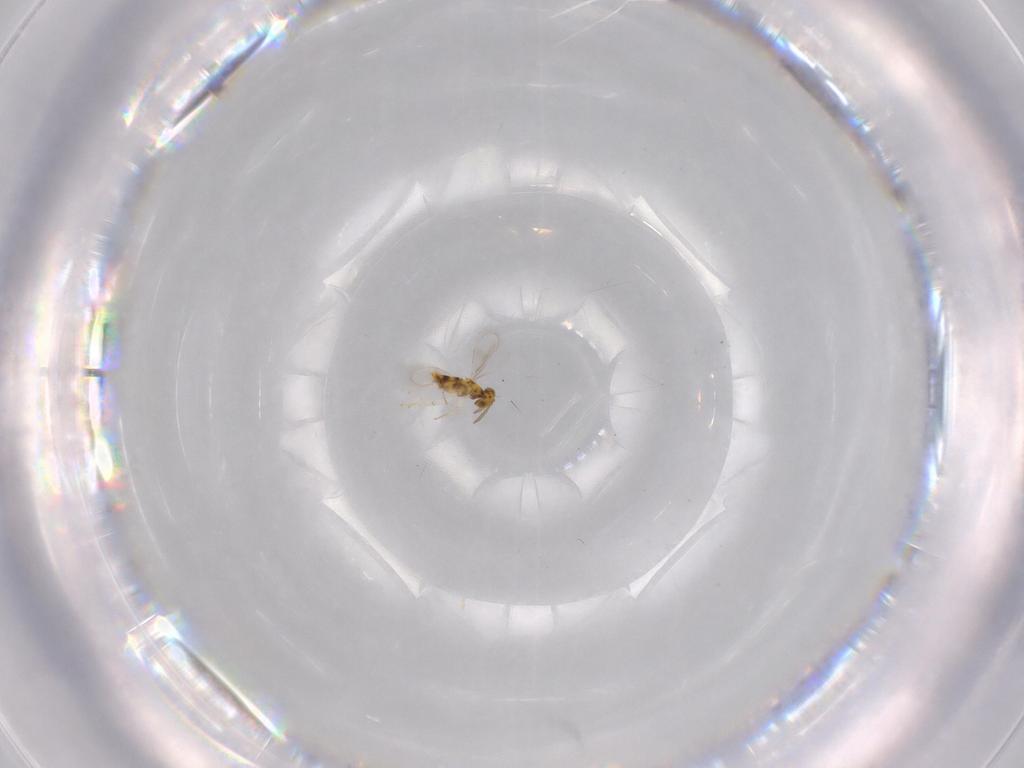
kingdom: Animalia
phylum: Arthropoda
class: Insecta
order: Hymenoptera
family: Aphelinidae
